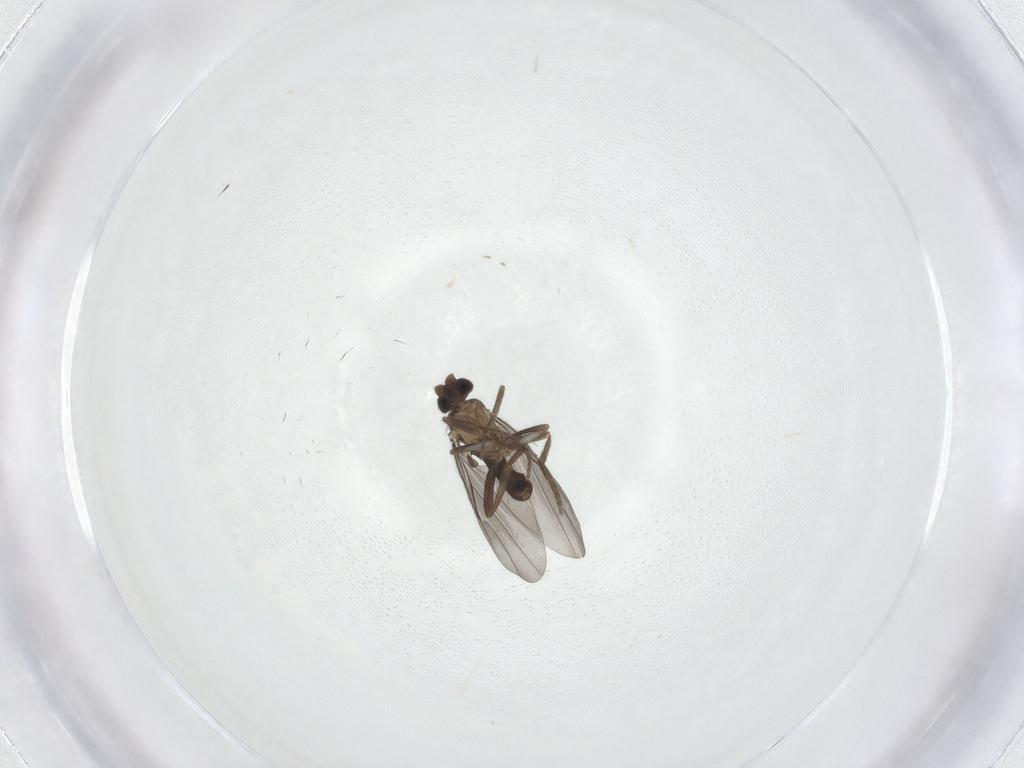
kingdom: Animalia
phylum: Arthropoda
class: Insecta
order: Diptera
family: Phoridae
